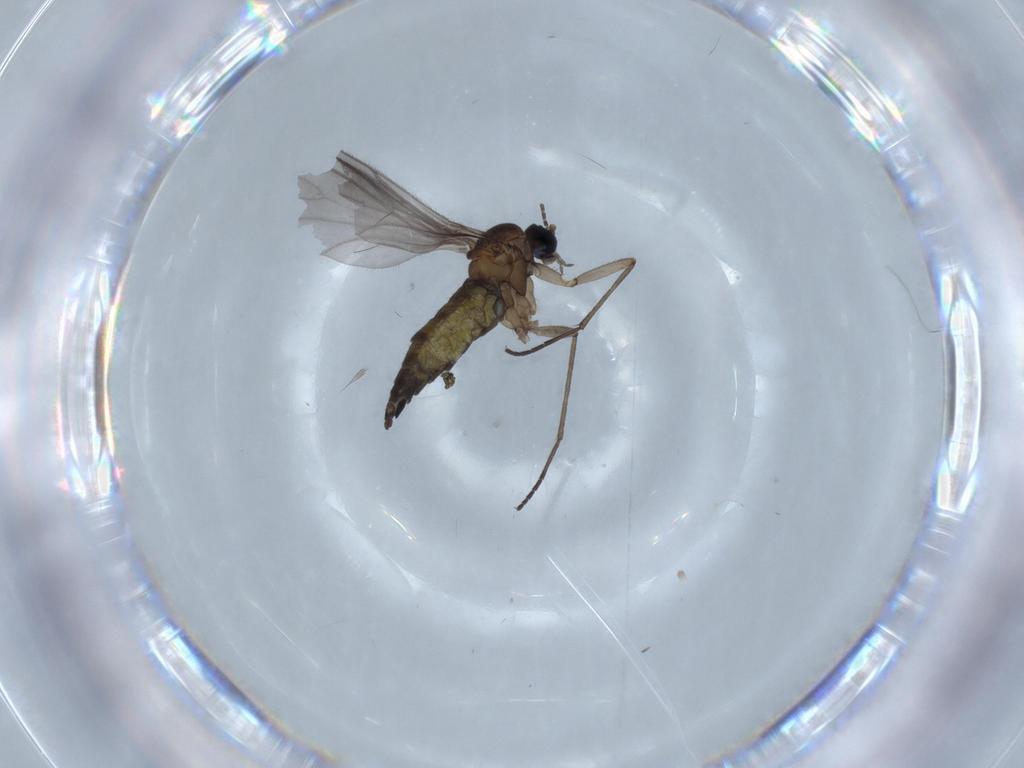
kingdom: Animalia
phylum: Arthropoda
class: Insecta
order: Diptera
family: Sciaridae
